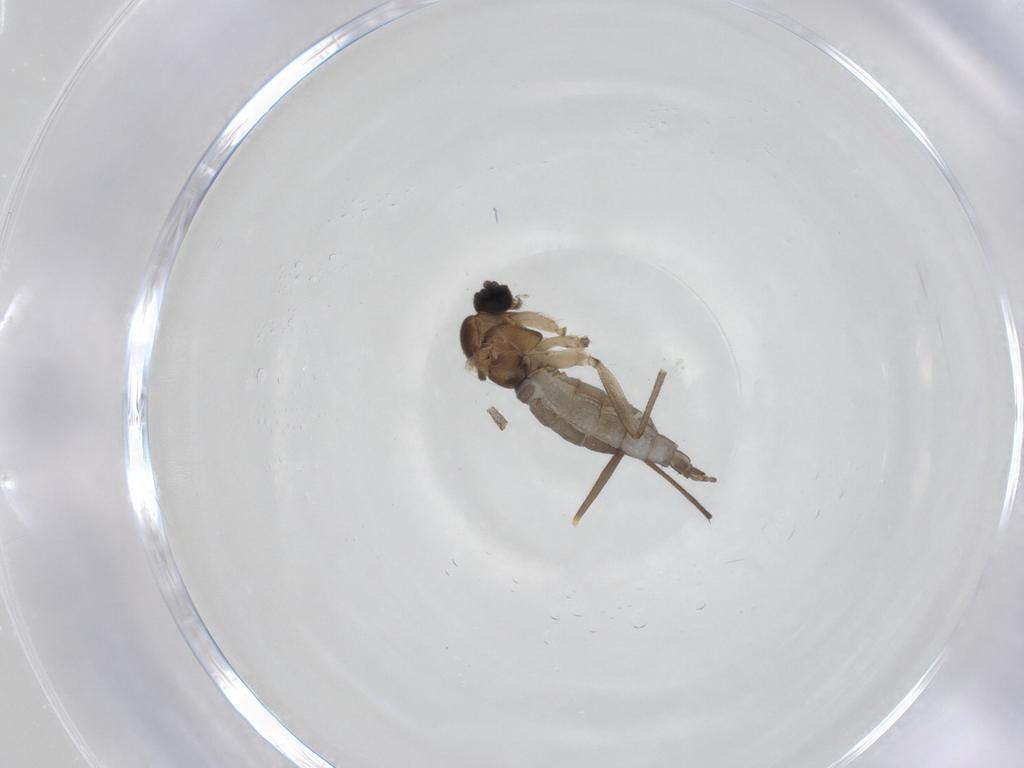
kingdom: Animalia
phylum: Arthropoda
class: Insecta
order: Diptera
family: Sciaridae
